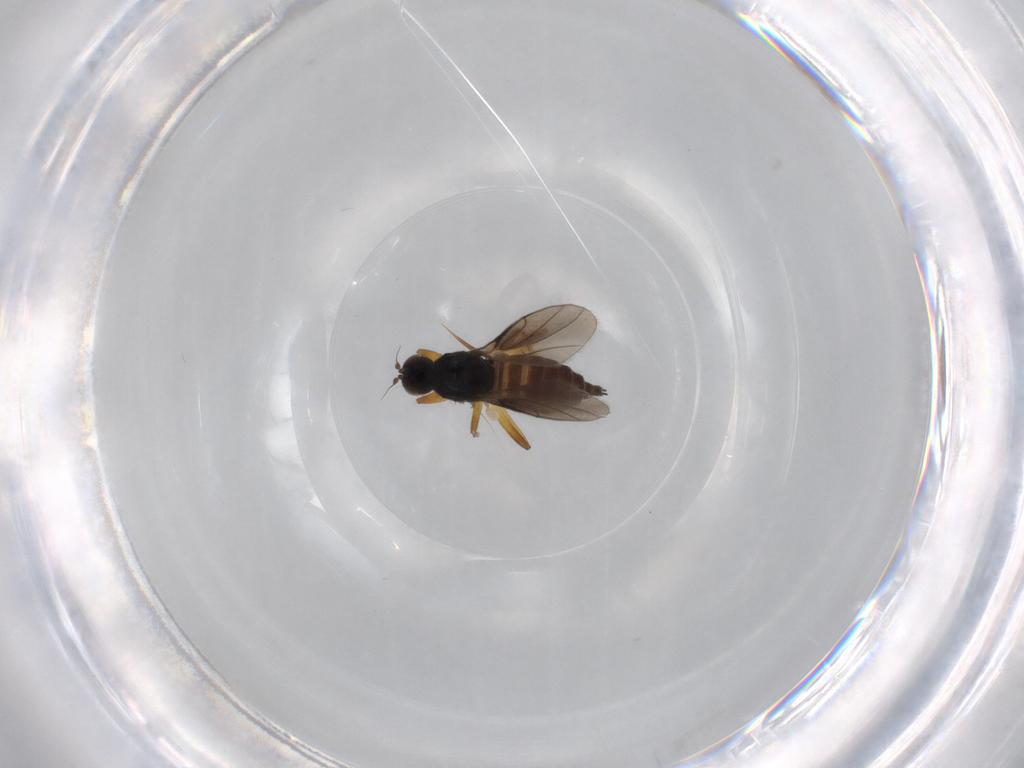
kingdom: Animalia
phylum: Arthropoda
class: Insecta
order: Diptera
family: Hybotidae
